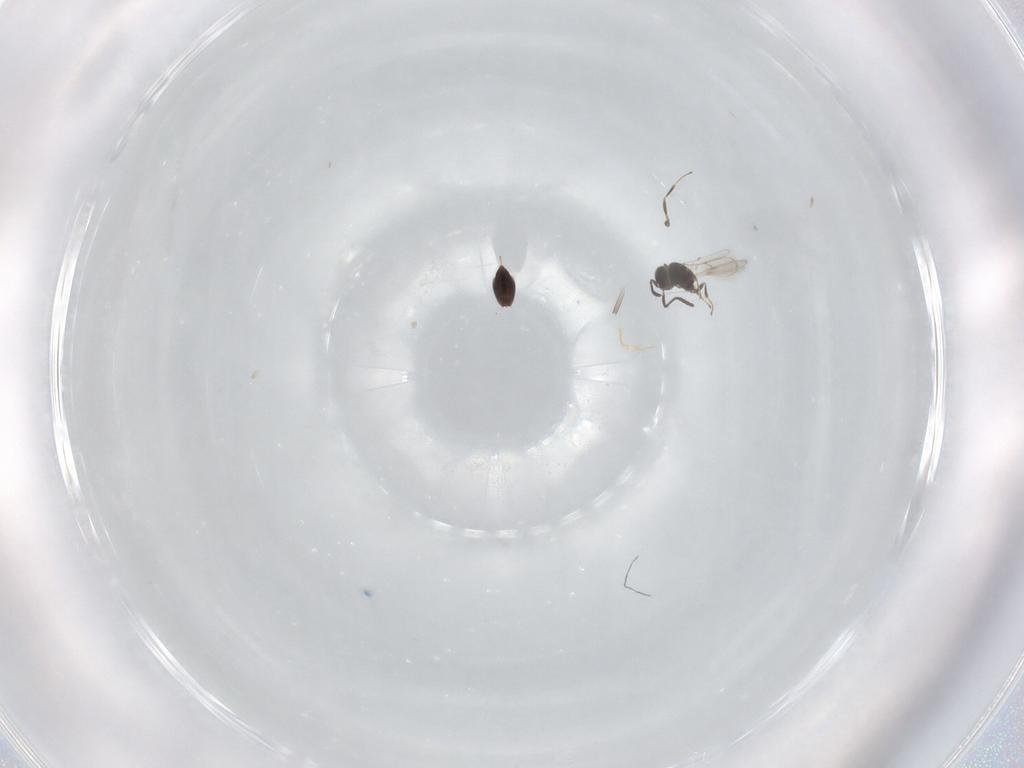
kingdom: Animalia
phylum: Arthropoda
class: Insecta
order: Hymenoptera
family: Scelionidae
